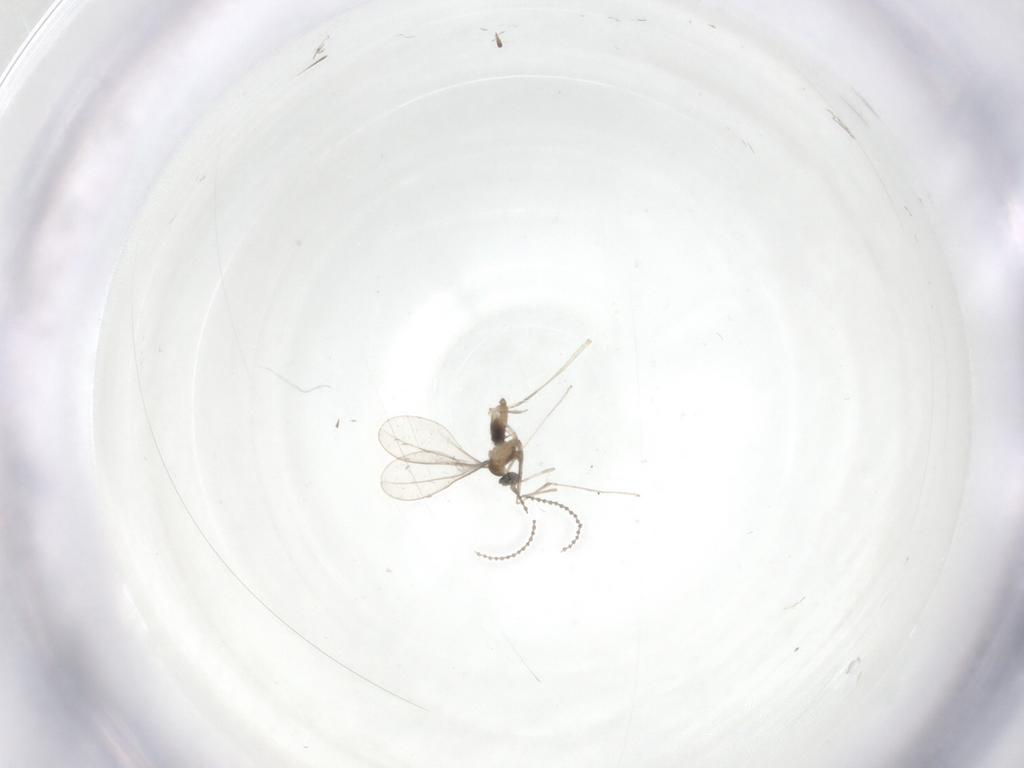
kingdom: Animalia
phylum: Arthropoda
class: Insecta
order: Diptera
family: Cecidomyiidae
